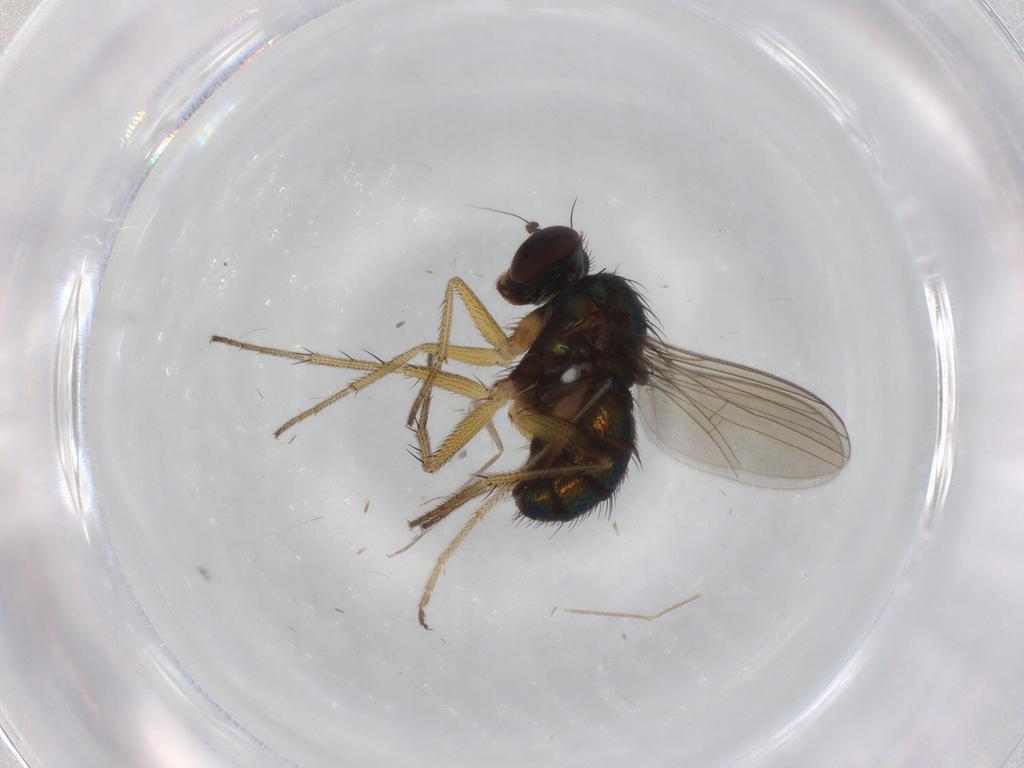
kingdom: Animalia
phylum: Arthropoda
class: Insecta
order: Diptera
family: Dolichopodidae
